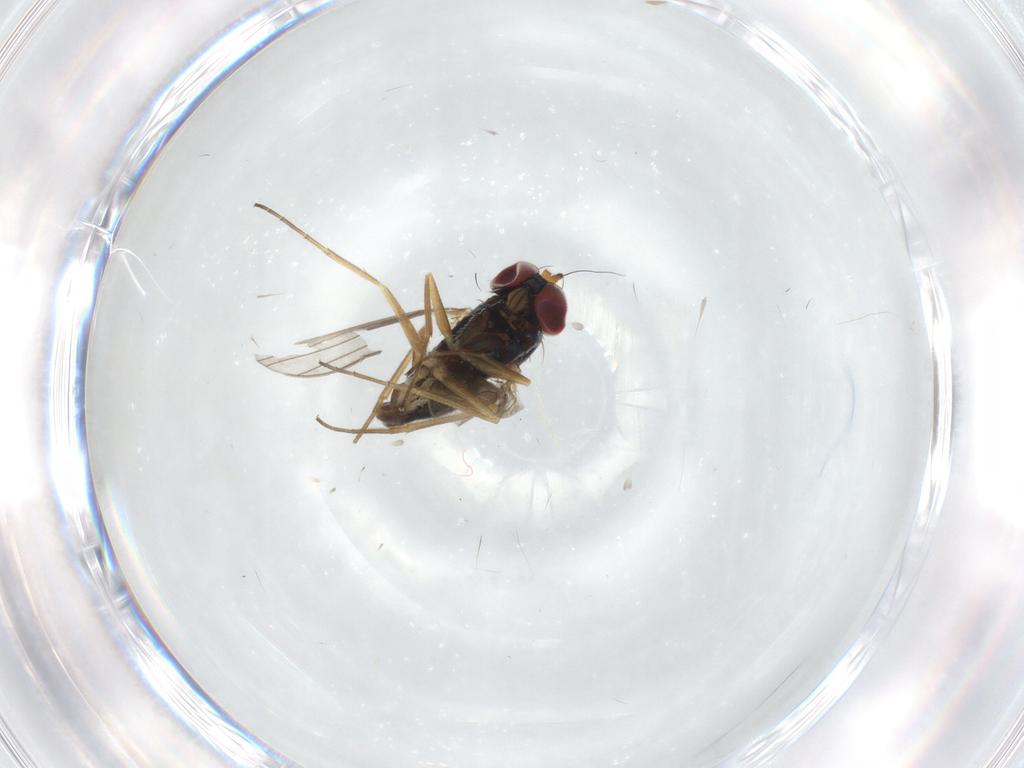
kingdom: Animalia
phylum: Arthropoda
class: Insecta
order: Diptera
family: Dolichopodidae
